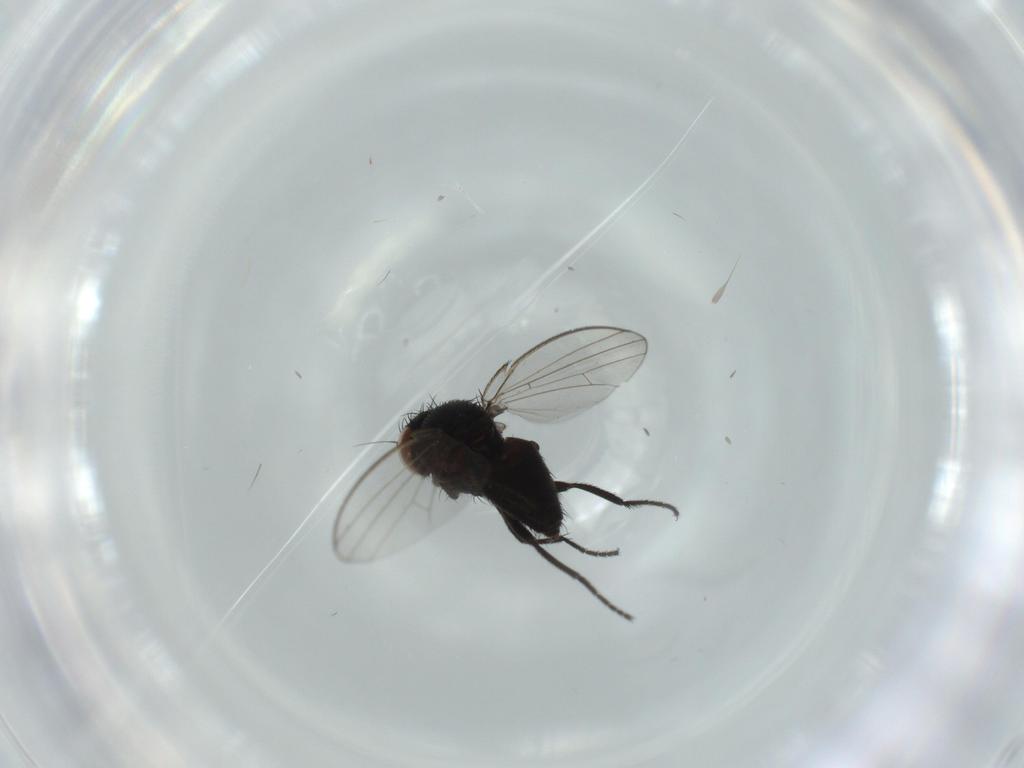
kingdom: Animalia
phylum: Arthropoda
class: Insecta
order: Diptera
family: Milichiidae
